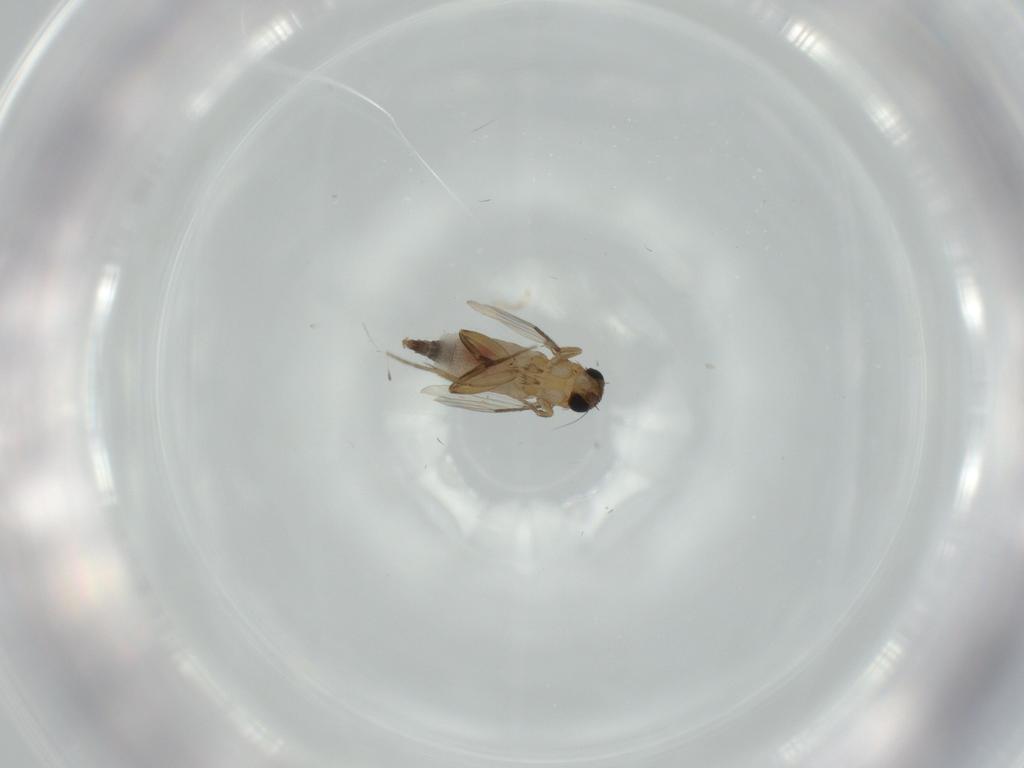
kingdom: Animalia
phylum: Arthropoda
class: Insecta
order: Diptera
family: Phoridae
